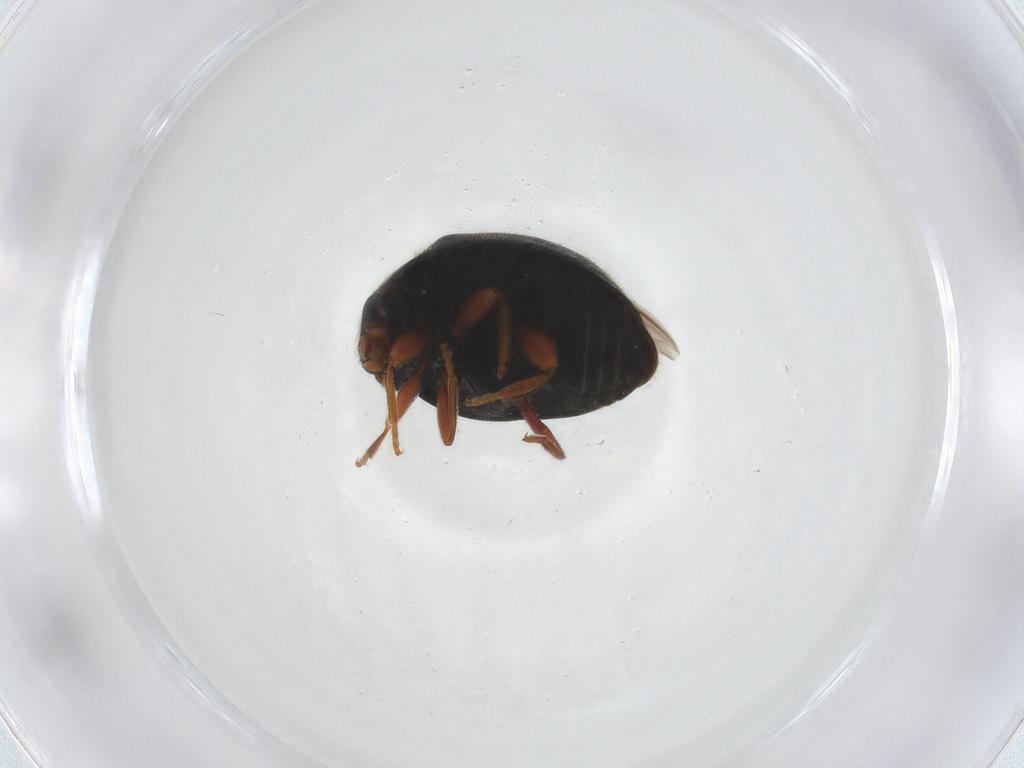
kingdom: Animalia
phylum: Arthropoda
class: Insecta
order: Coleoptera
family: Coccinellidae
